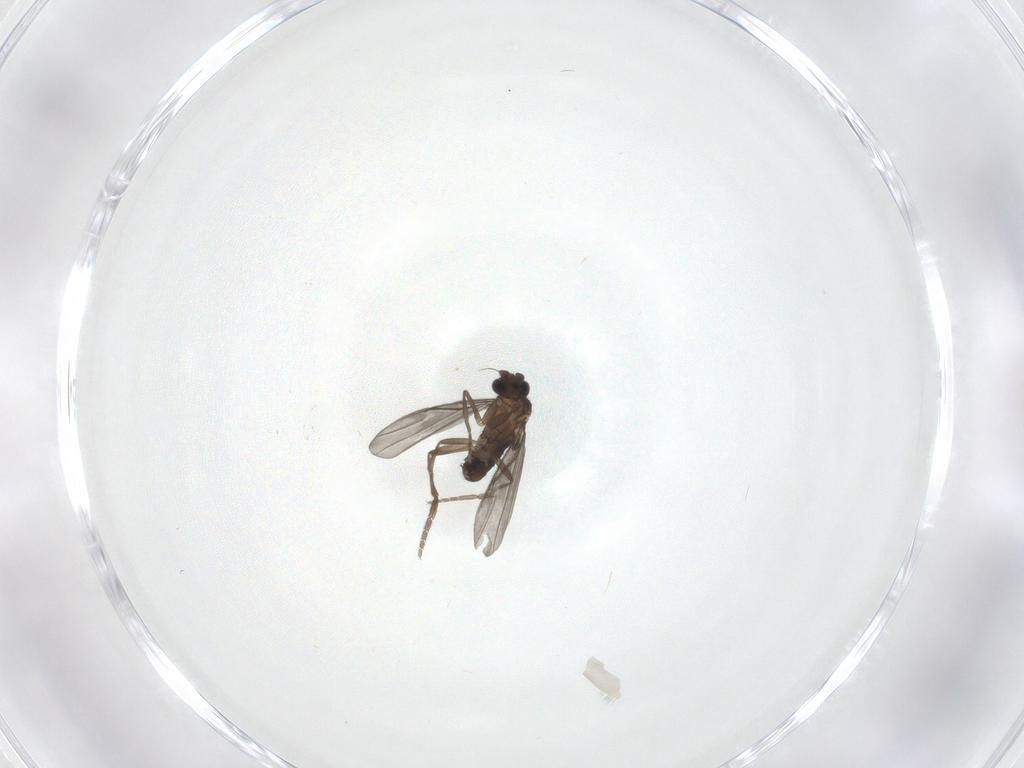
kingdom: Animalia
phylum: Arthropoda
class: Insecta
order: Diptera
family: Phoridae
